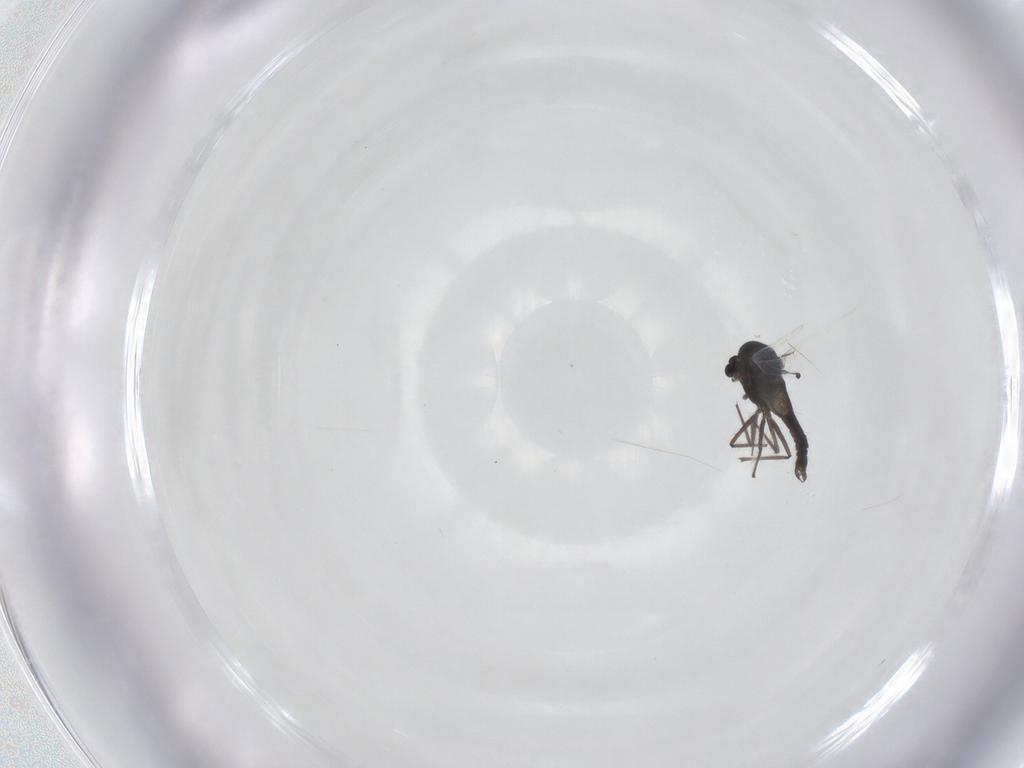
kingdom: Animalia
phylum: Arthropoda
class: Insecta
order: Diptera
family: Chironomidae
